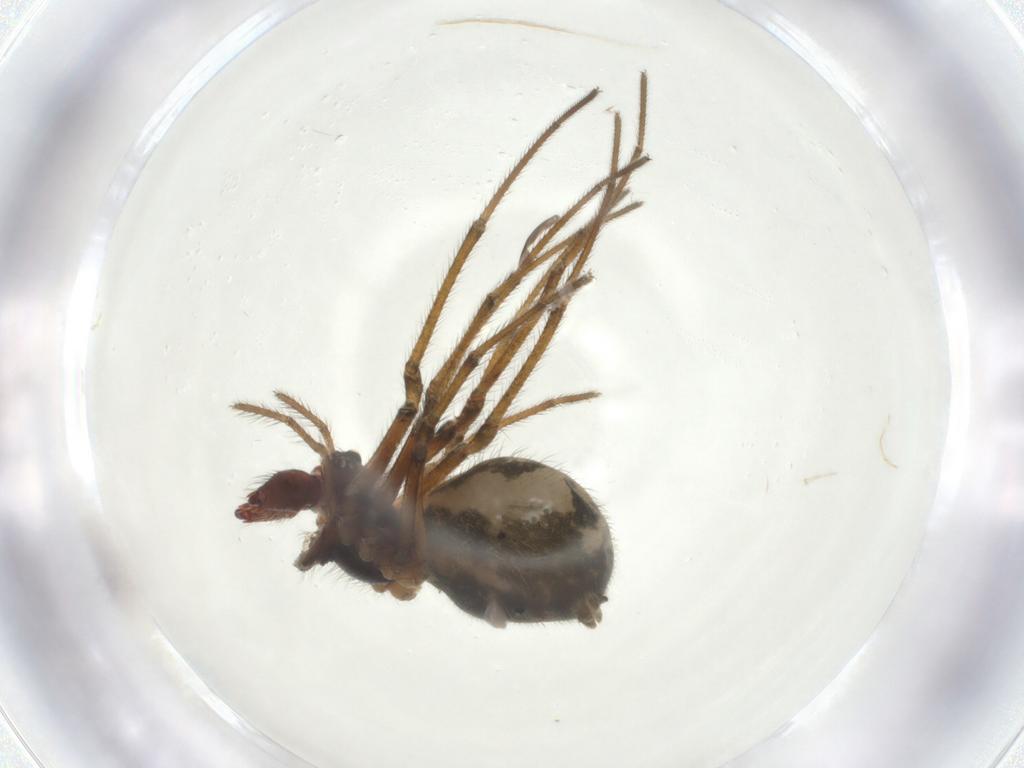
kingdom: Animalia
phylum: Arthropoda
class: Arachnida
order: Araneae
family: Tetragnathidae
